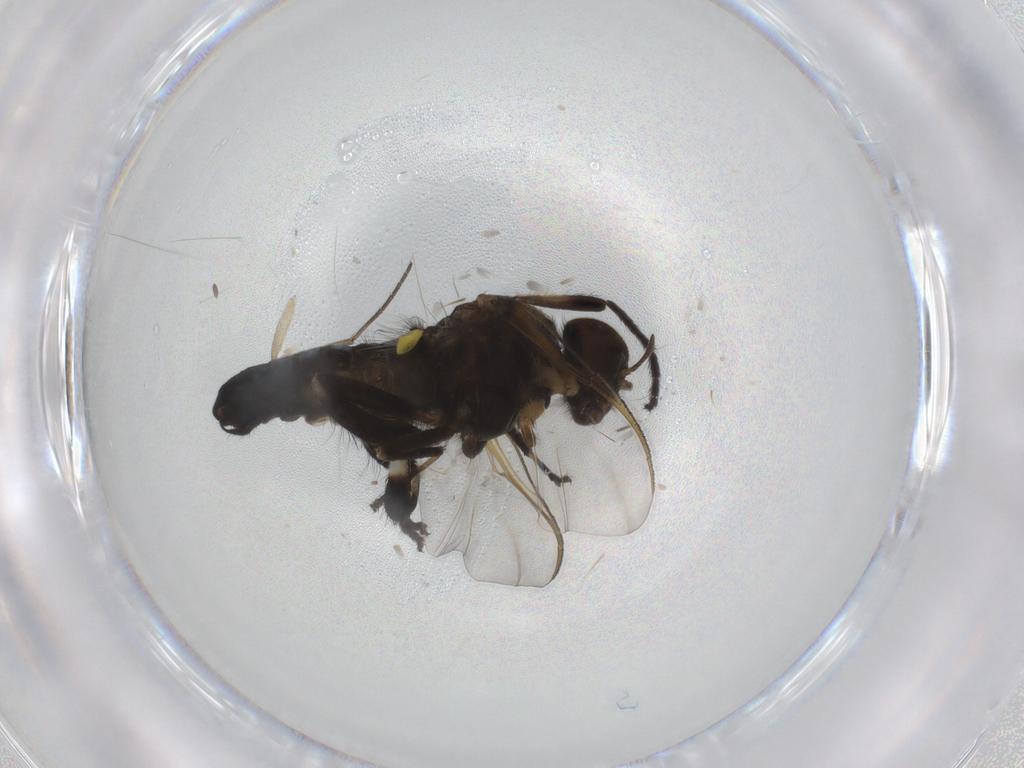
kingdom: Animalia
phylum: Arthropoda
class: Insecta
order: Diptera
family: Chironomidae
